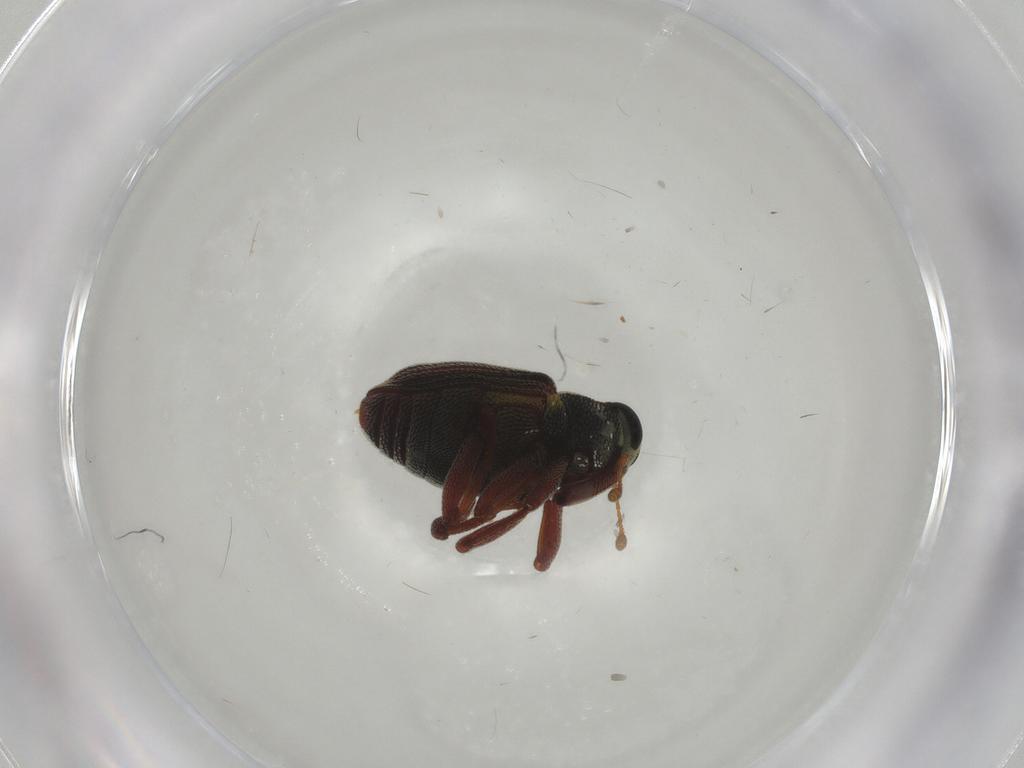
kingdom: Animalia
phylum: Arthropoda
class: Insecta
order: Coleoptera
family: Curculionidae
